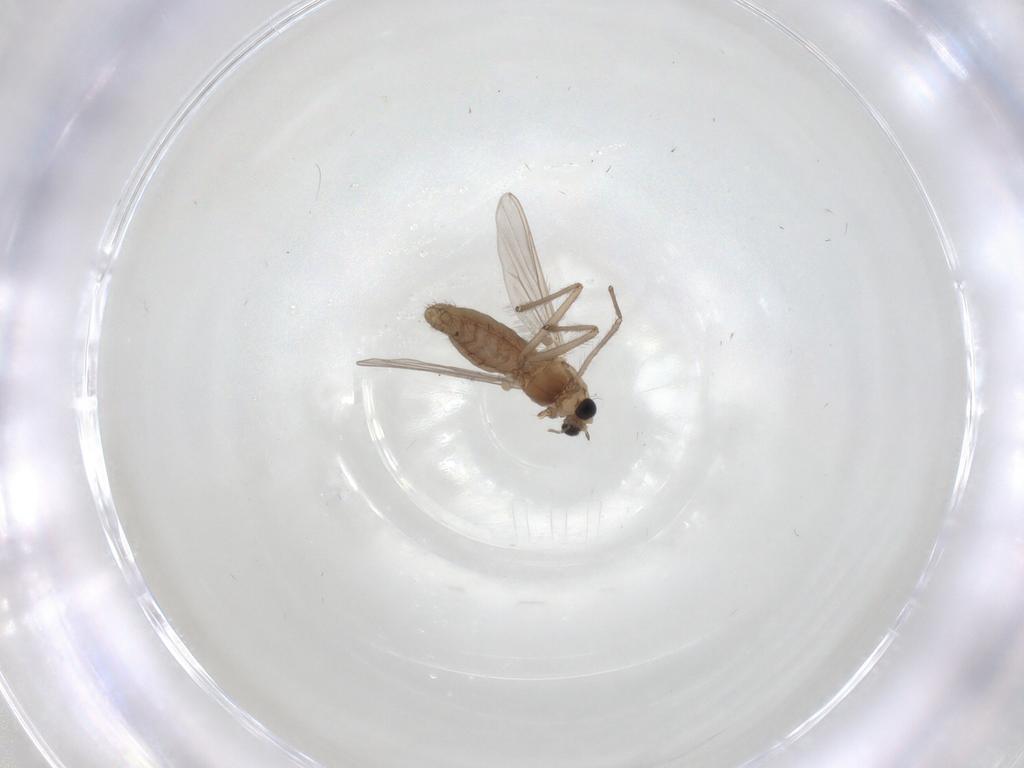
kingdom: Animalia
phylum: Arthropoda
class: Insecta
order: Diptera
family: Chironomidae
